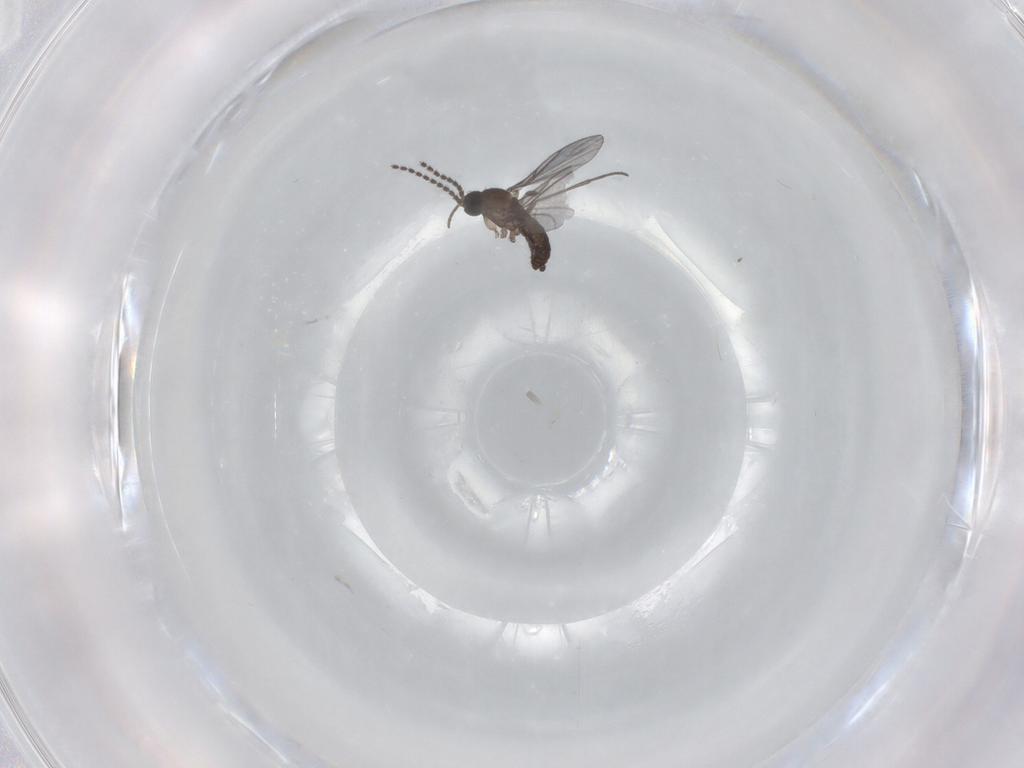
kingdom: Animalia
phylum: Arthropoda
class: Insecta
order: Diptera
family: Sciaridae
